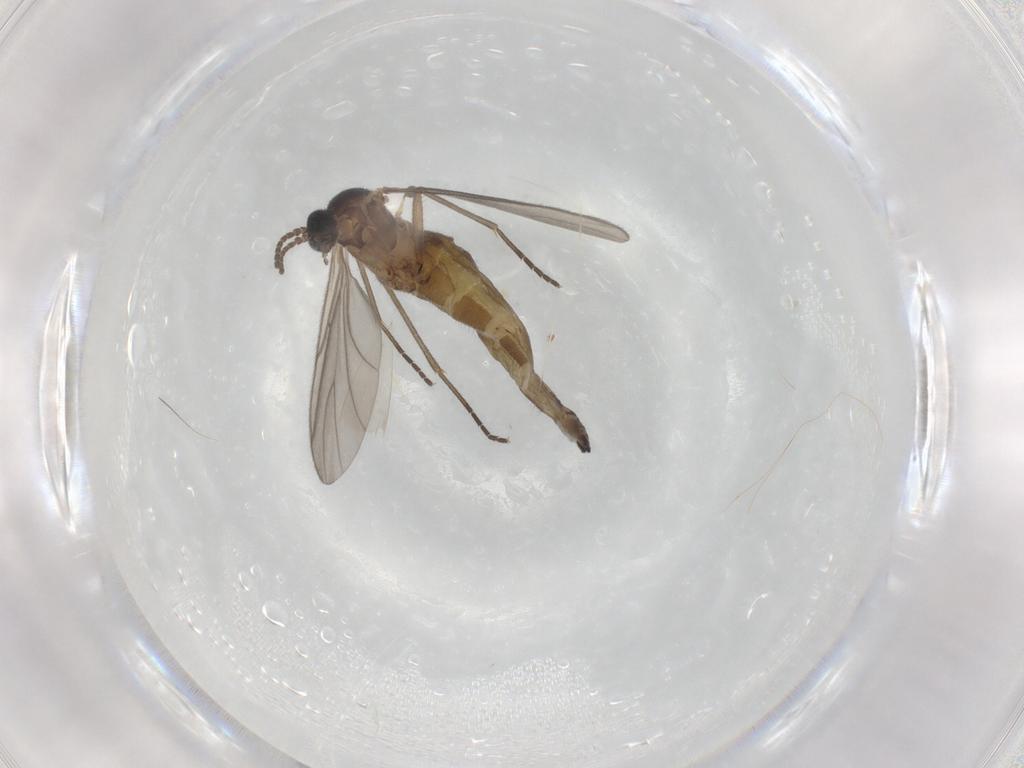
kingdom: Animalia
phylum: Arthropoda
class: Insecta
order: Diptera
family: Sciaridae
